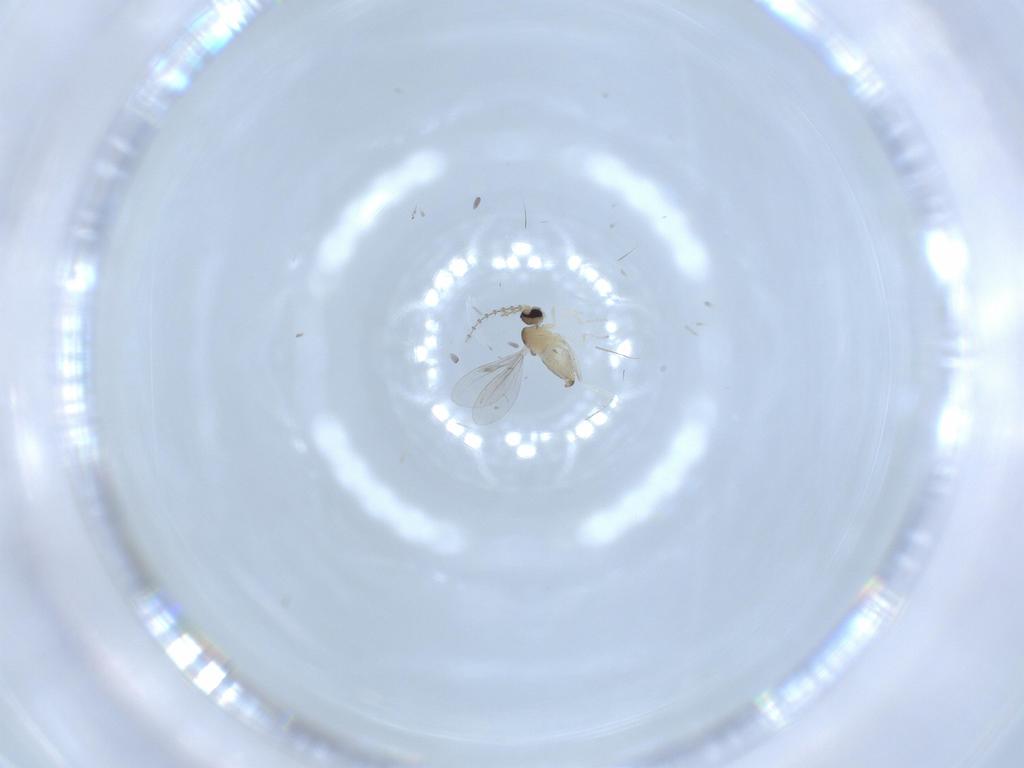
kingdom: Animalia
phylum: Arthropoda
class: Insecta
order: Diptera
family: Cecidomyiidae
